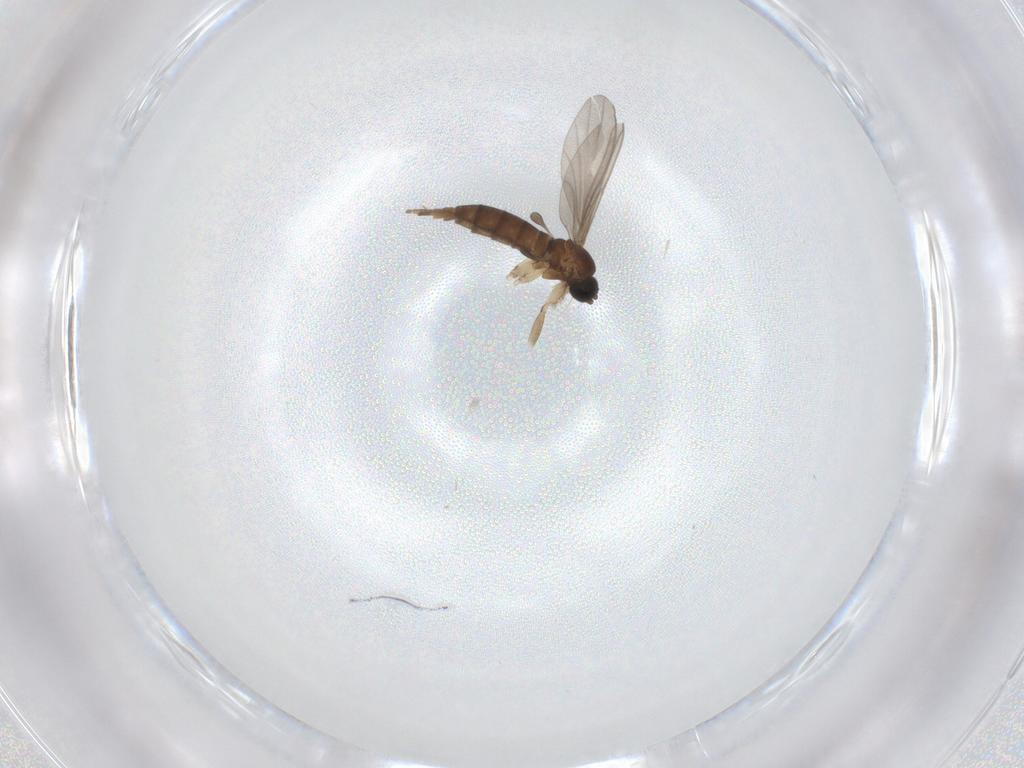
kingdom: Animalia
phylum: Arthropoda
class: Insecta
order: Diptera
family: Sciaridae
